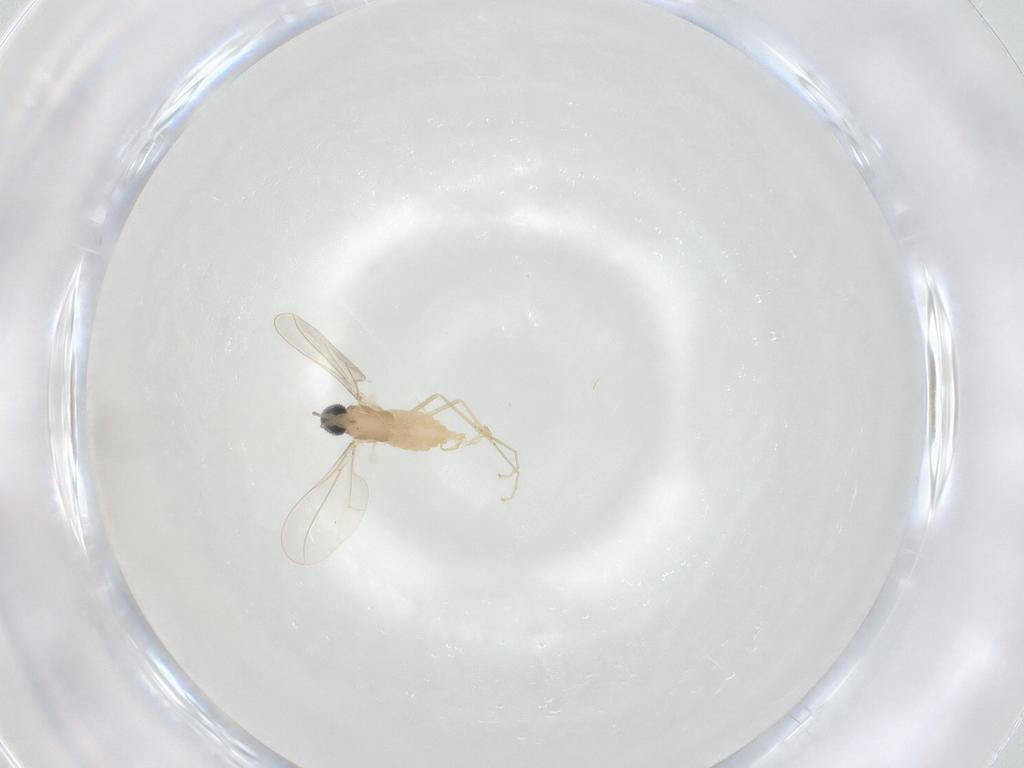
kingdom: Animalia
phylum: Arthropoda
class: Insecta
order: Diptera
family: Cecidomyiidae
